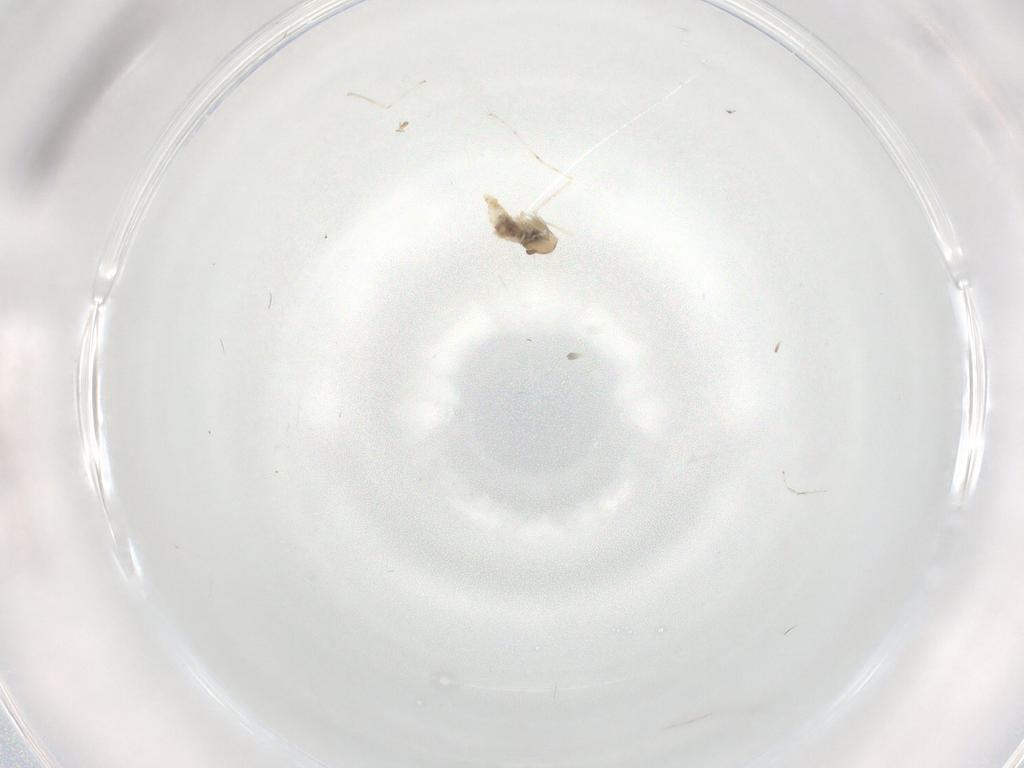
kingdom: Animalia
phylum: Arthropoda
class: Insecta
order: Diptera
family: Cecidomyiidae
